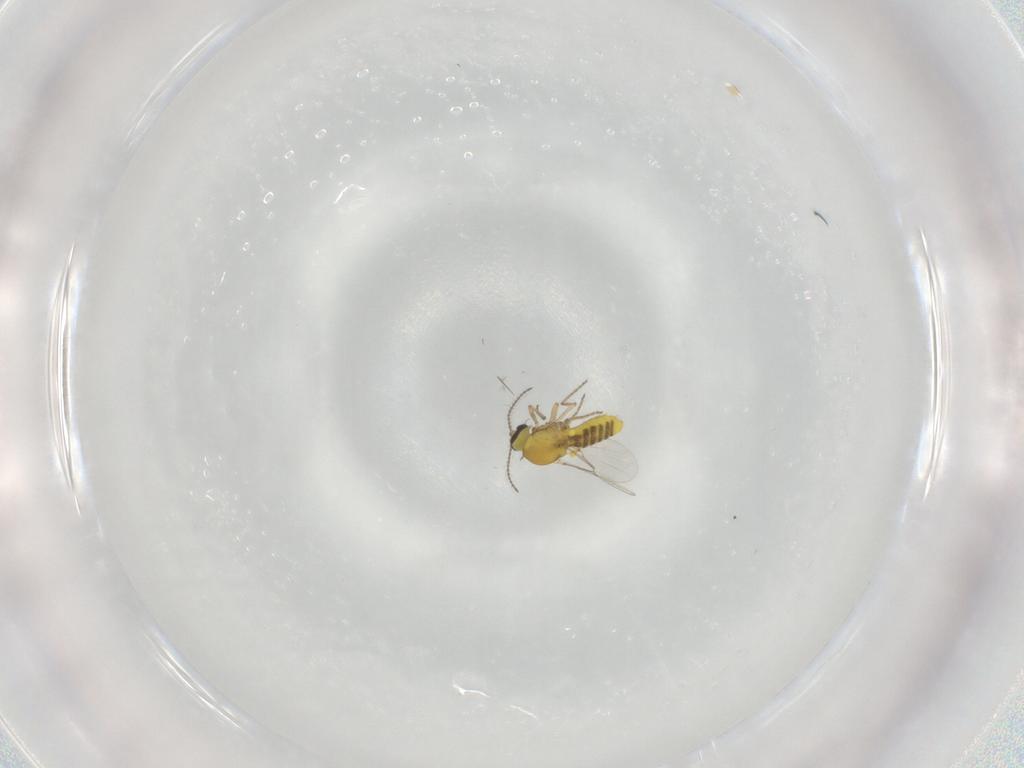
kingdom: Animalia
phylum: Arthropoda
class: Insecta
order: Diptera
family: Ceratopogonidae
